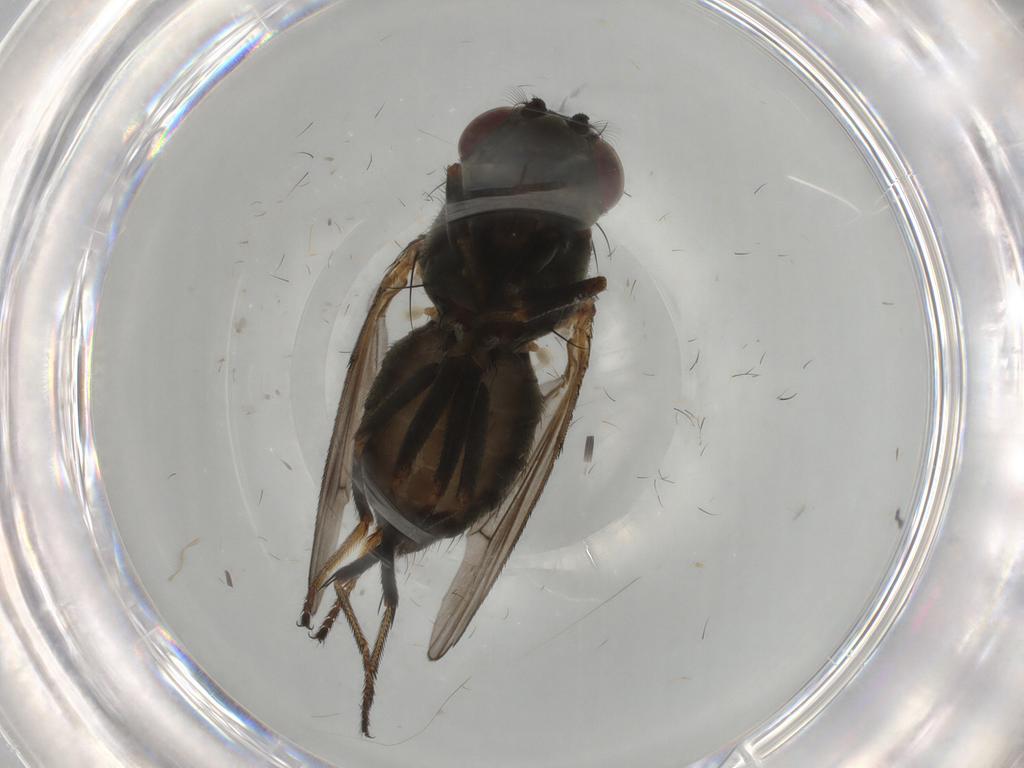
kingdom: Animalia
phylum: Arthropoda
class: Insecta
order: Diptera
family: Ephydridae
